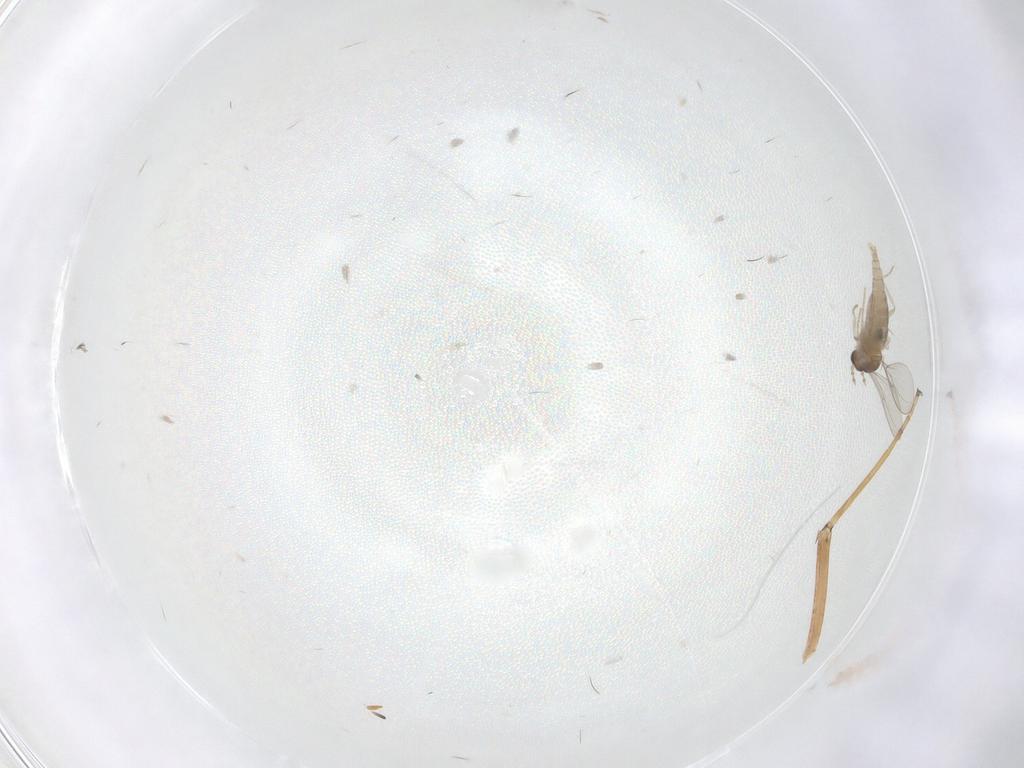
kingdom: Animalia
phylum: Arthropoda
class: Insecta
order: Diptera
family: Cecidomyiidae
